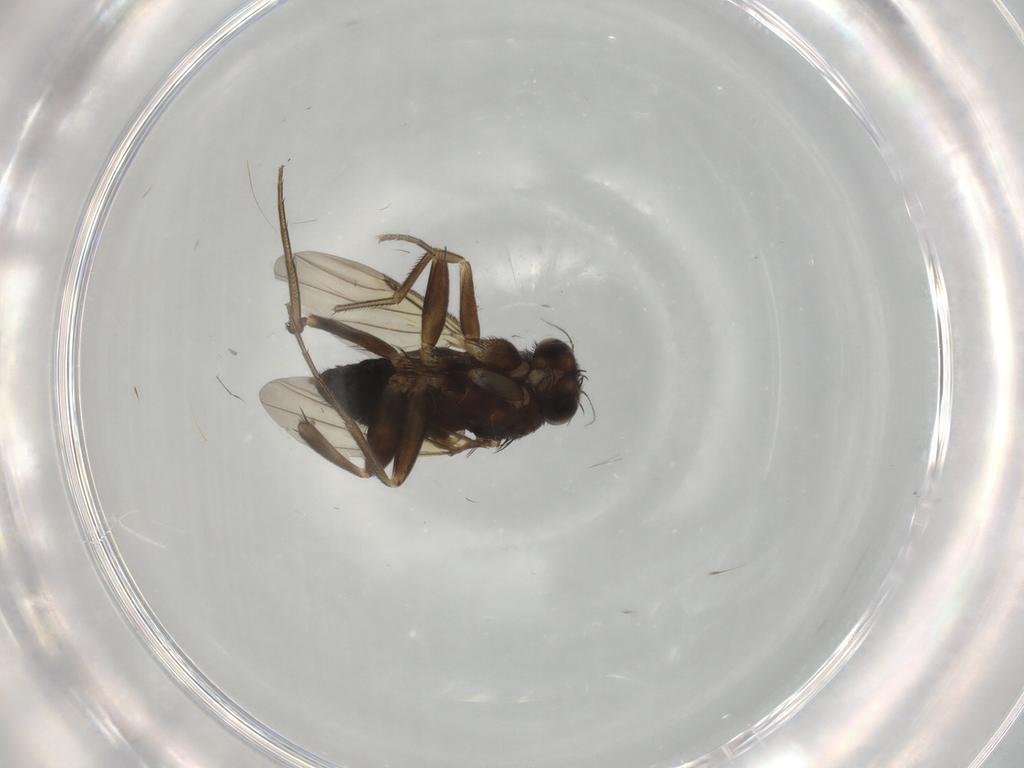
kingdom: Animalia
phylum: Arthropoda
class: Insecta
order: Diptera
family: Phoridae
